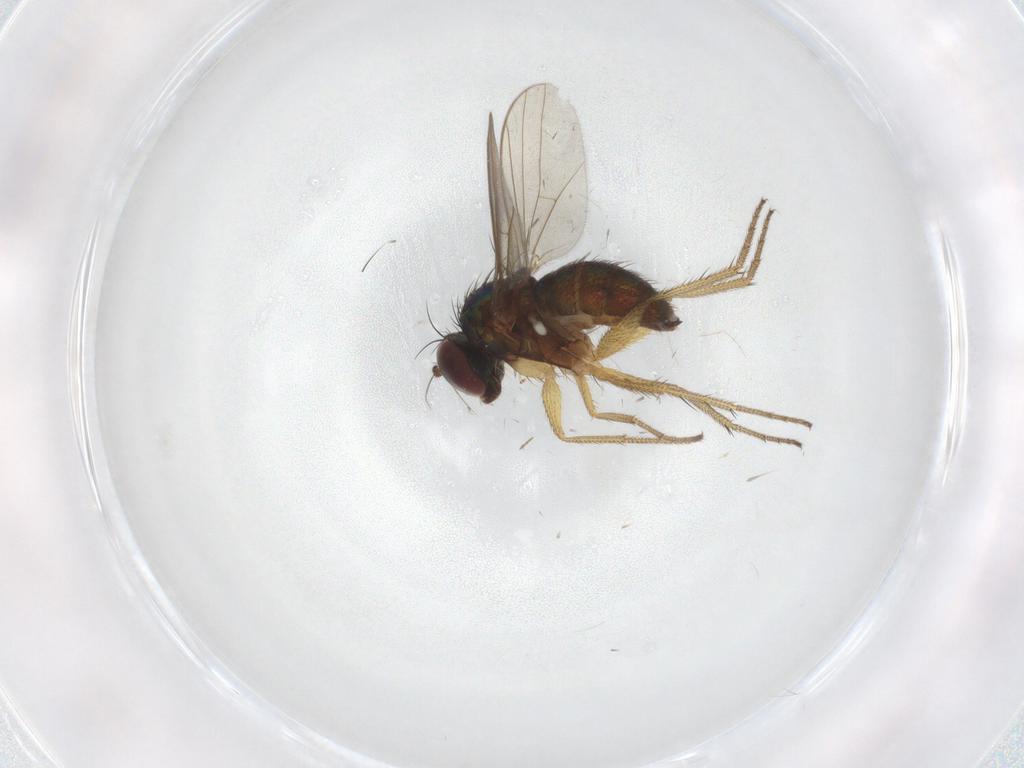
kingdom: Animalia
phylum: Arthropoda
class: Insecta
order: Diptera
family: Dolichopodidae
